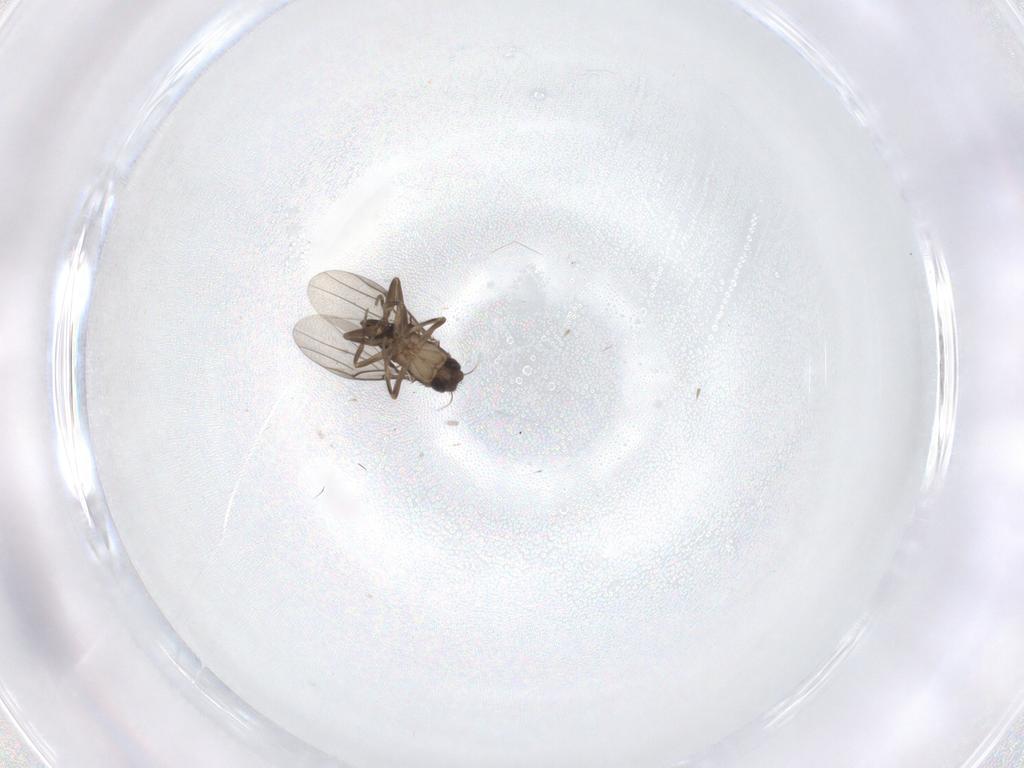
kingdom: Animalia
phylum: Arthropoda
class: Insecta
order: Diptera
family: Phoridae
